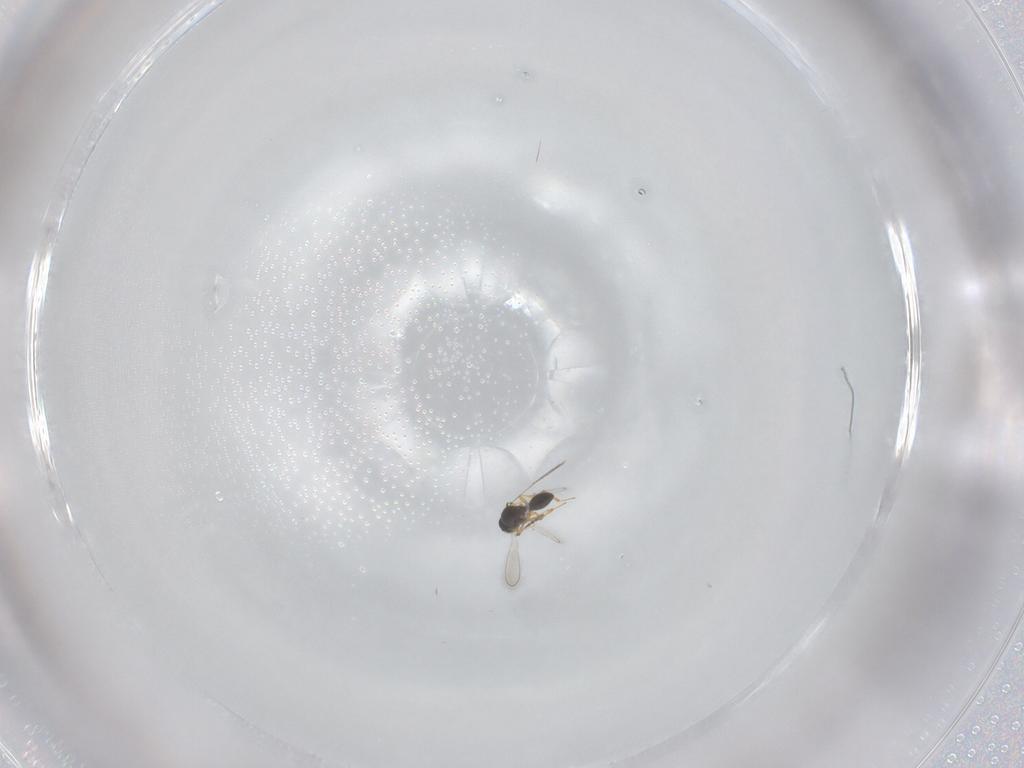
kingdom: Animalia
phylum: Arthropoda
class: Insecta
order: Hymenoptera
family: Platygastridae
